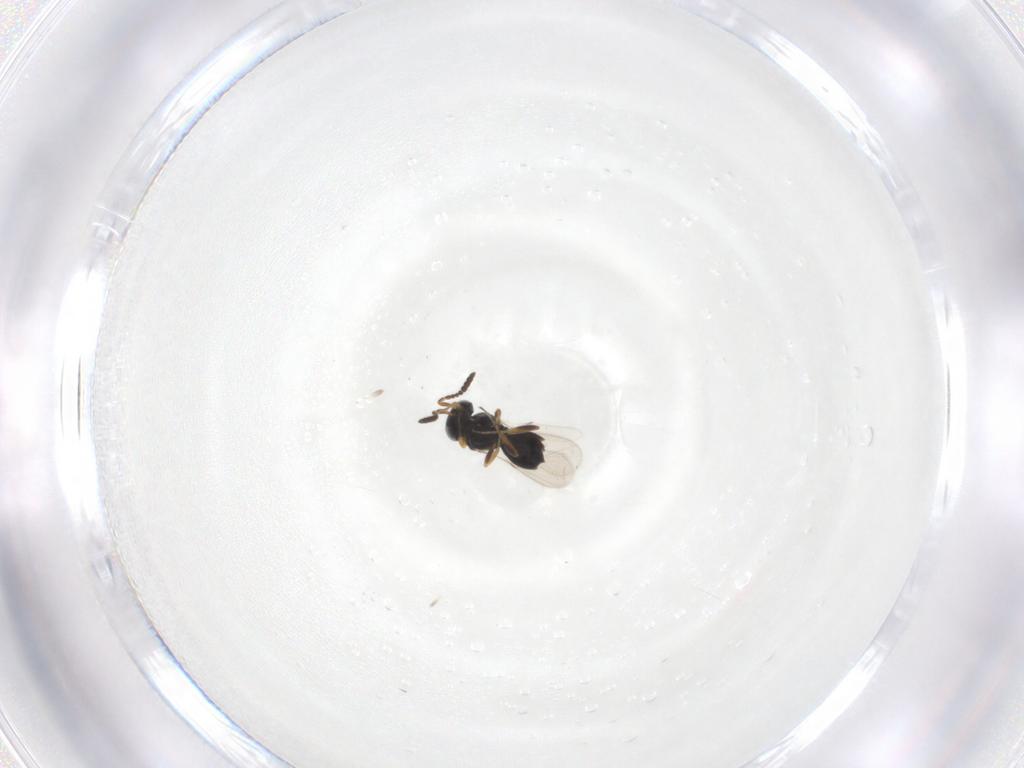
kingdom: Animalia
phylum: Arthropoda
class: Insecta
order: Hymenoptera
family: Scelionidae
